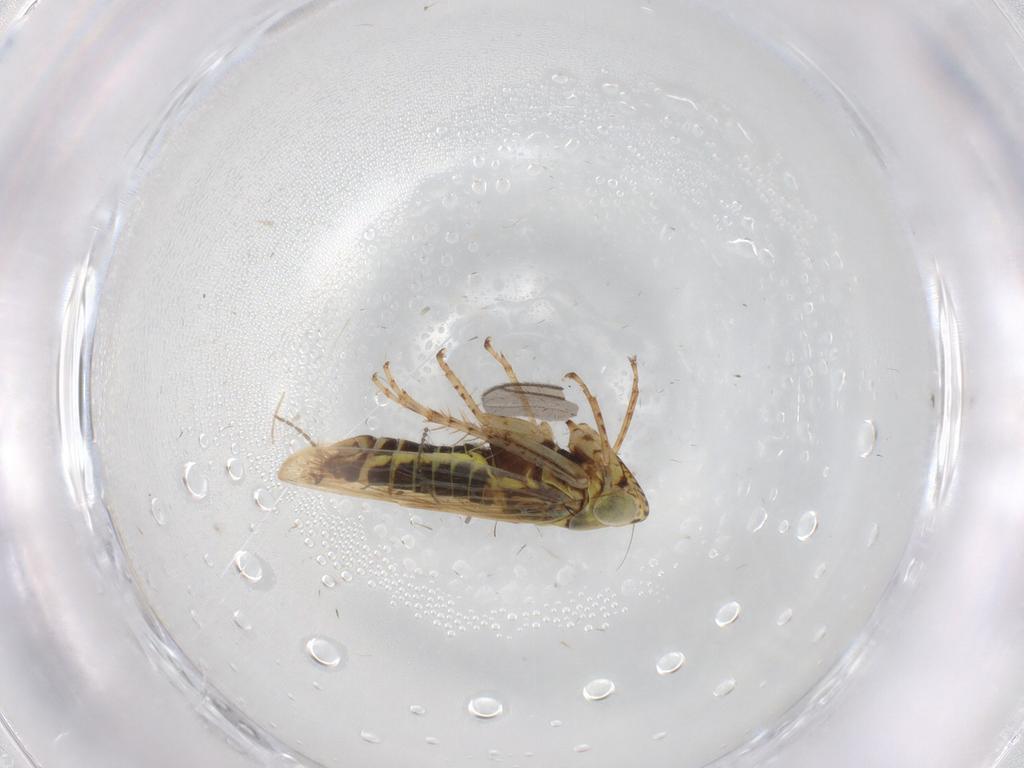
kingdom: Animalia
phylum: Arthropoda
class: Insecta
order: Hemiptera
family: Cicadellidae
